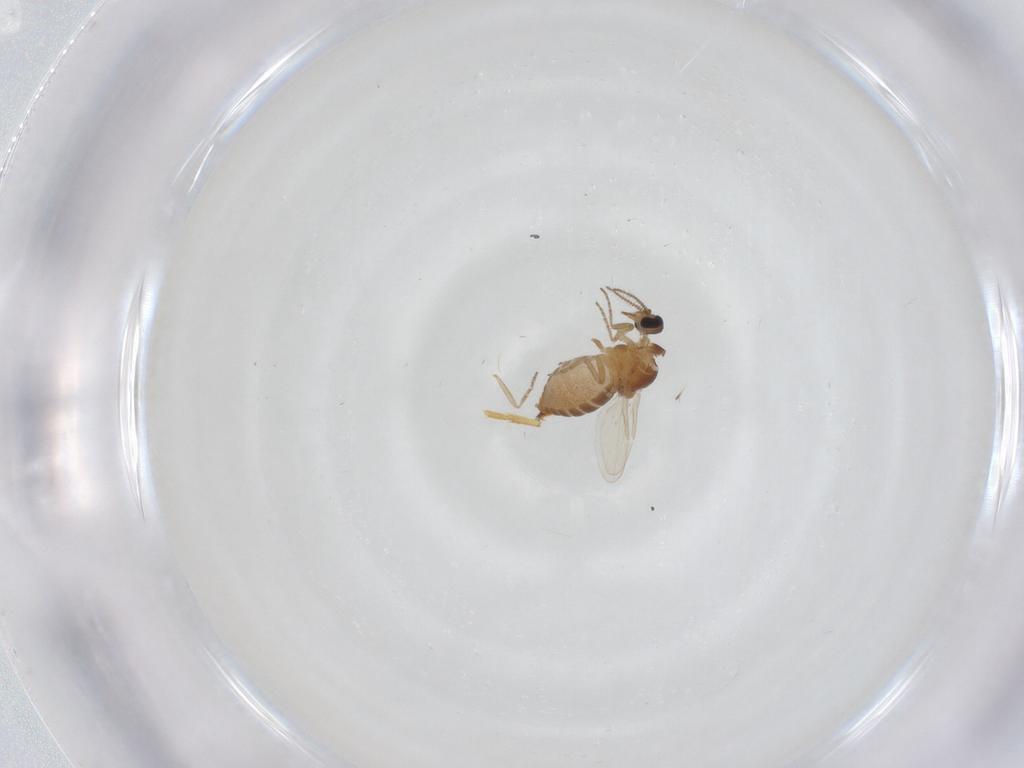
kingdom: Animalia
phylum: Arthropoda
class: Insecta
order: Diptera
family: Ceratopogonidae
